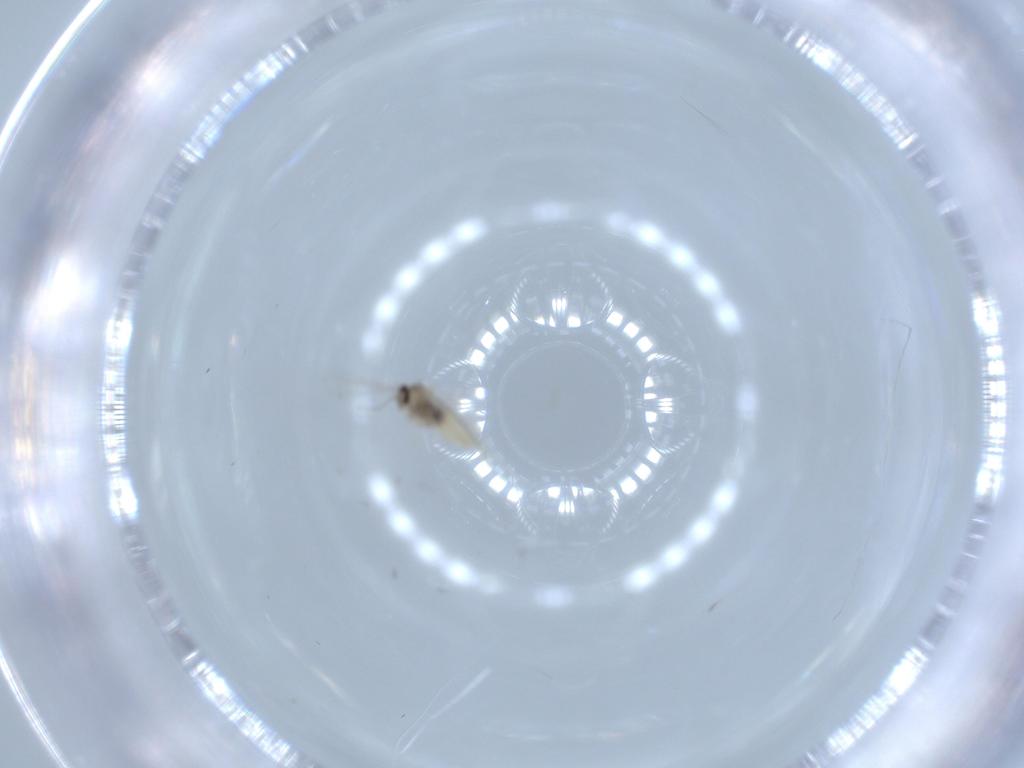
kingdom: Animalia
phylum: Arthropoda
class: Insecta
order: Diptera
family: Cecidomyiidae
